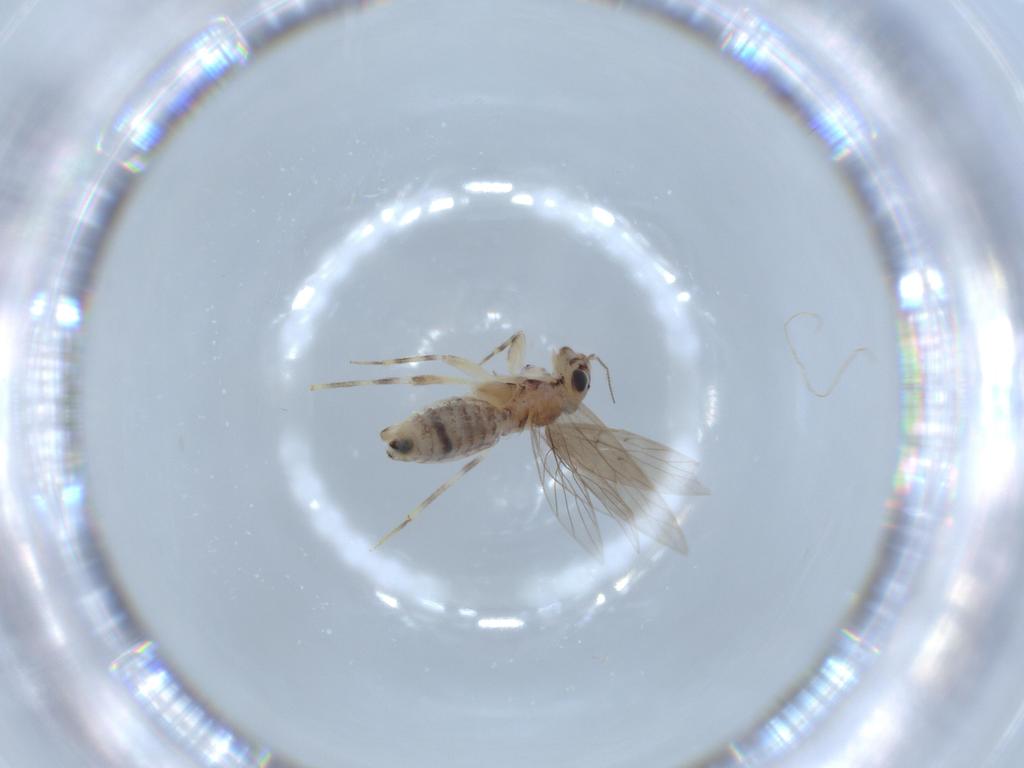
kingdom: Animalia
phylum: Arthropoda
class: Insecta
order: Psocodea
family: Lepidopsocidae
